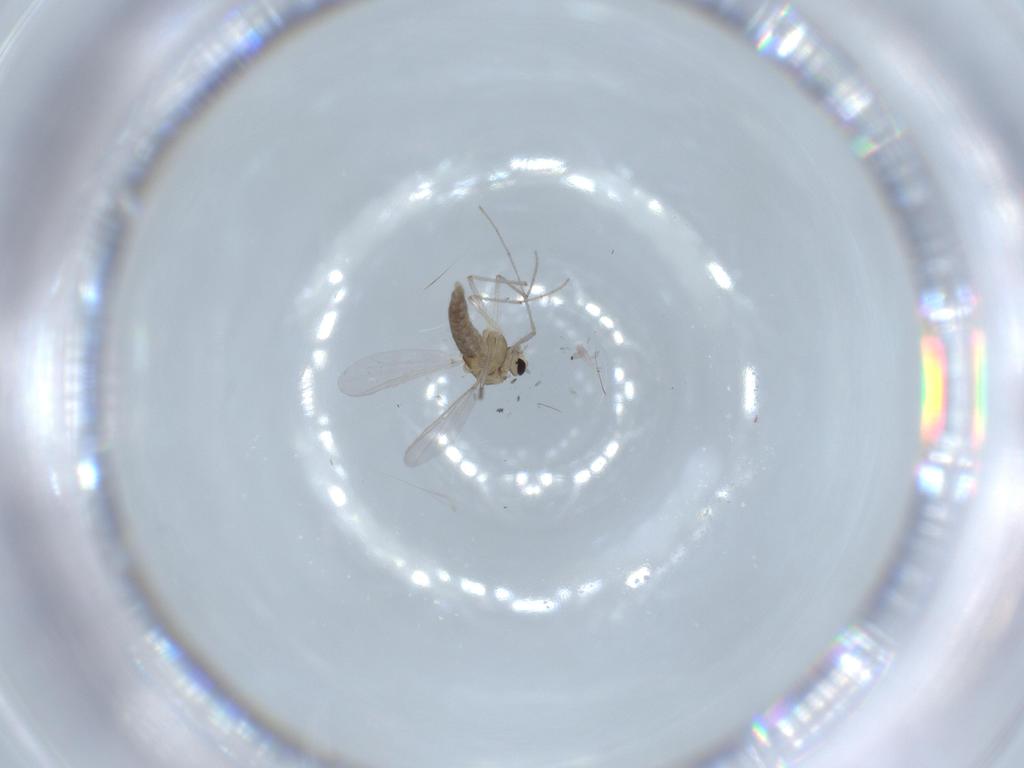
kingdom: Animalia
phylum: Arthropoda
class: Insecta
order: Diptera
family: Chironomidae
